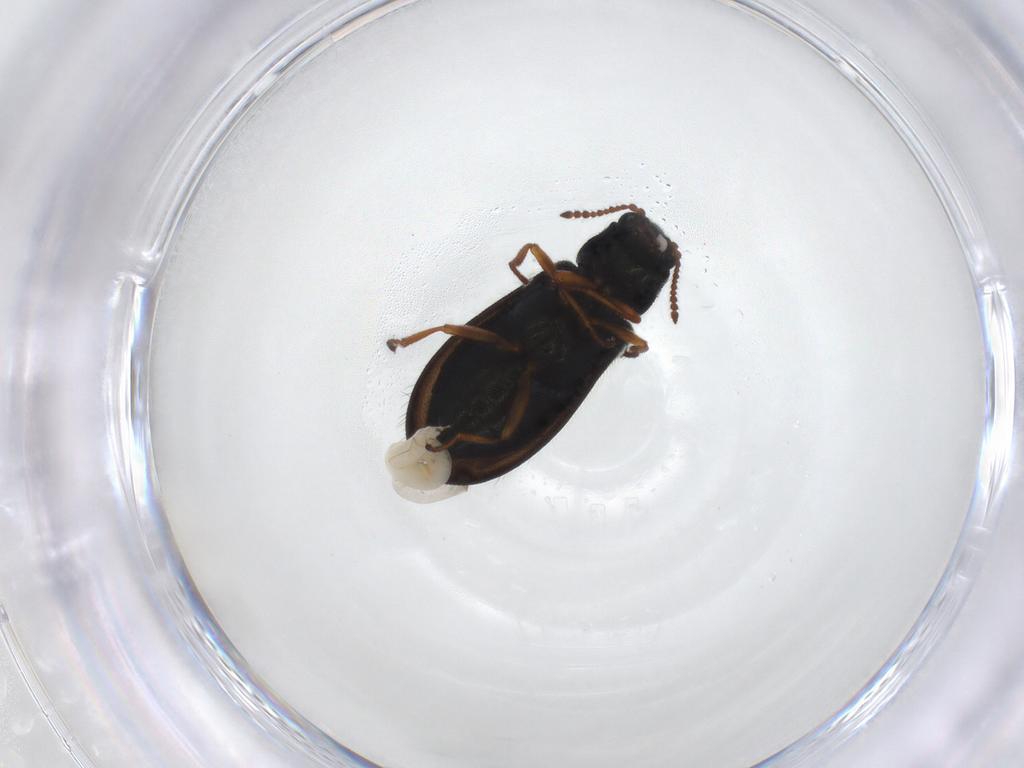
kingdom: Animalia
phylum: Arthropoda
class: Insecta
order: Coleoptera
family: Melyridae
